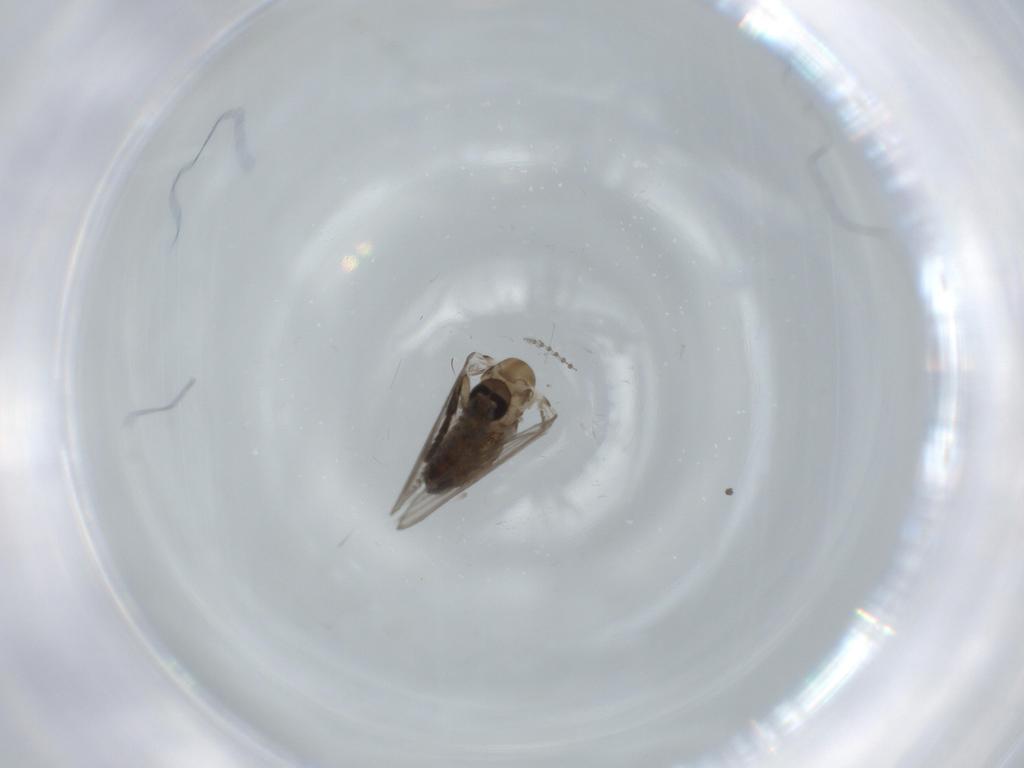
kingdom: Animalia
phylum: Arthropoda
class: Insecta
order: Diptera
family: Psychodidae
